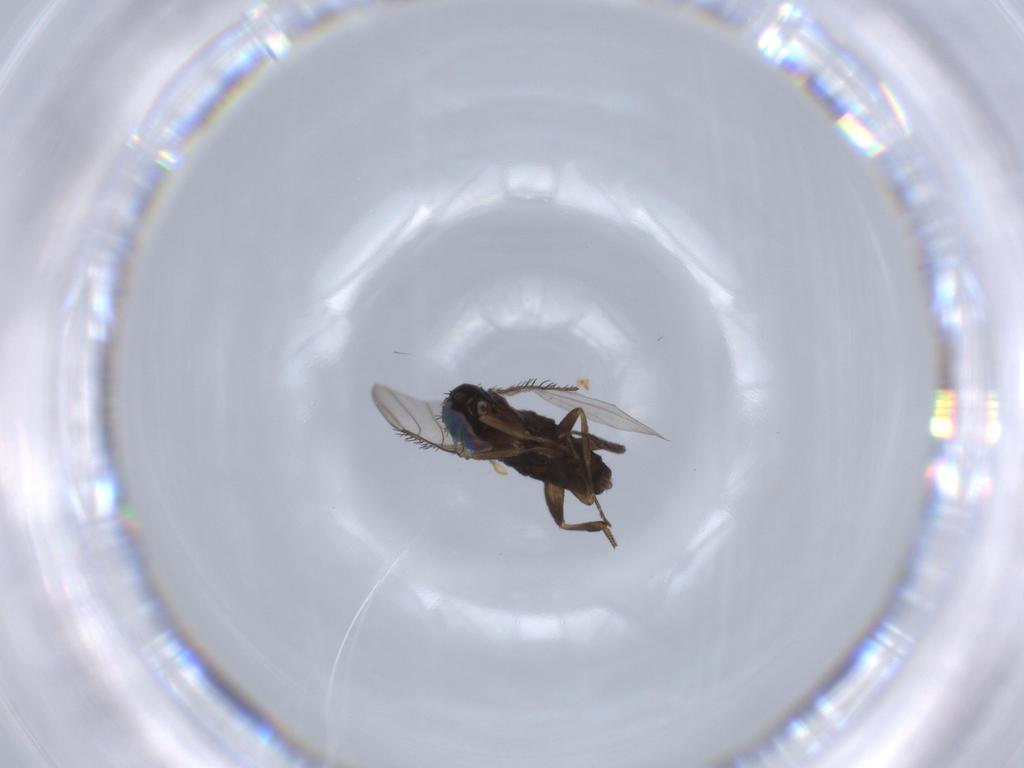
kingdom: Animalia
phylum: Arthropoda
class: Insecta
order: Diptera
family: Phoridae
